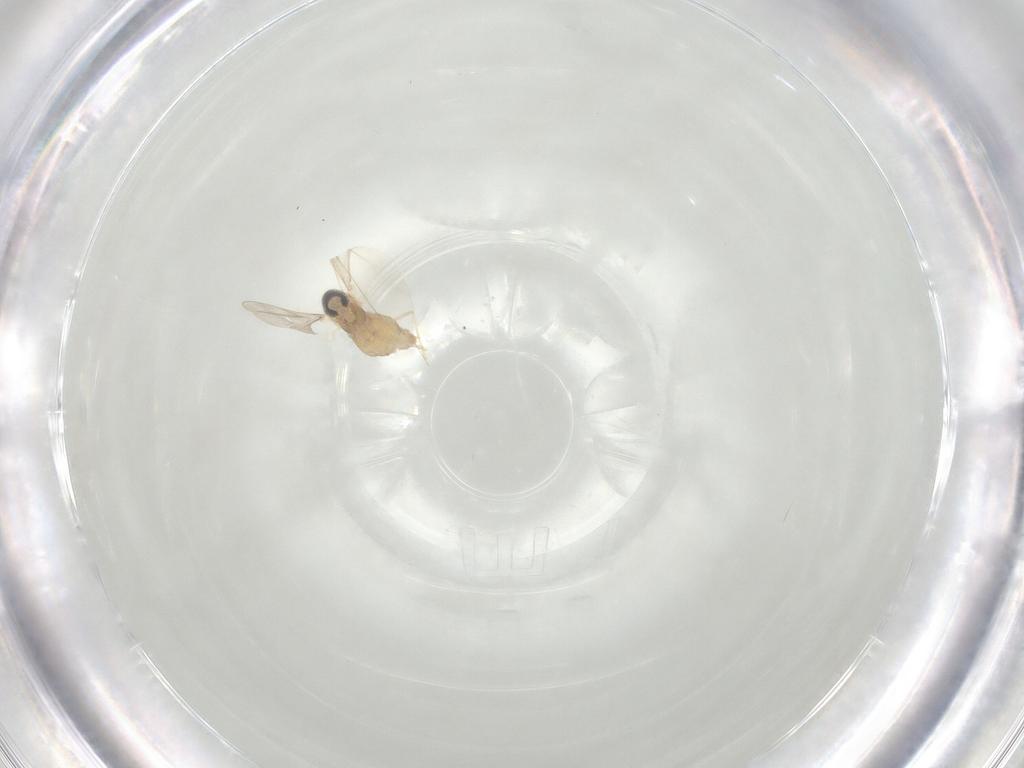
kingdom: Animalia
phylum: Arthropoda
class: Insecta
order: Diptera
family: Cecidomyiidae
